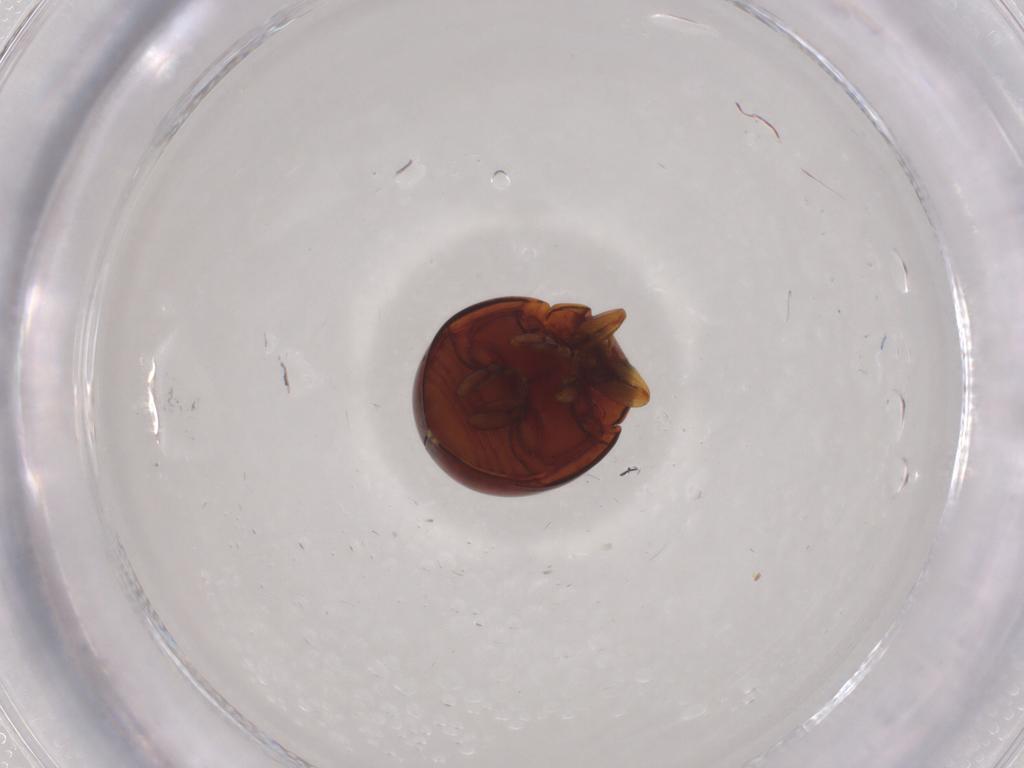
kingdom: Animalia
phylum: Arthropoda
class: Insecta
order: Coleoptera
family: Coccinellidae
